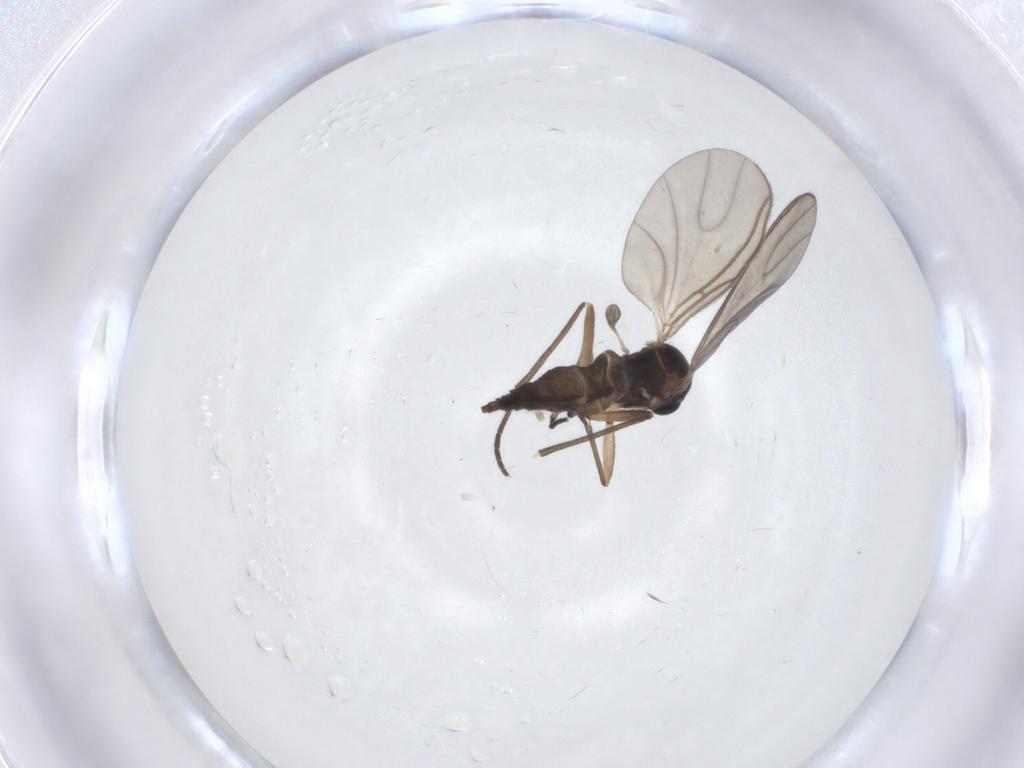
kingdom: Animalia
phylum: Arthropoda
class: Insecta
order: Diptera
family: Sciaridae
